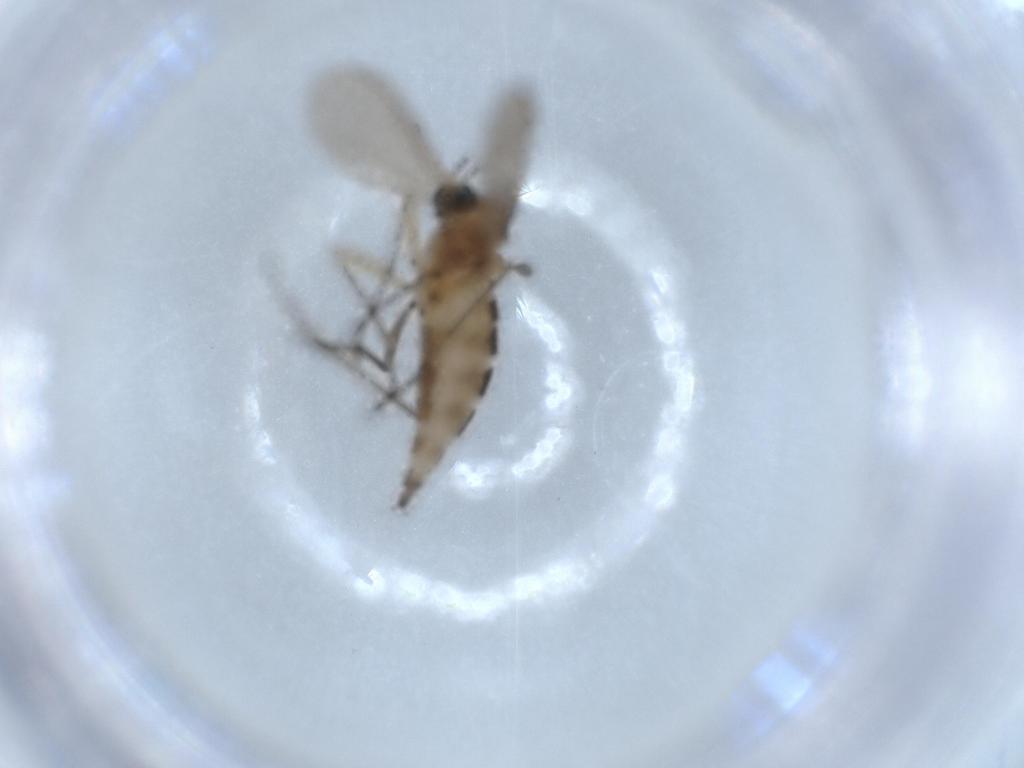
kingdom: Animalia
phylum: Arthropoda
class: Insecta
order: Diptera
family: Sciaridae
